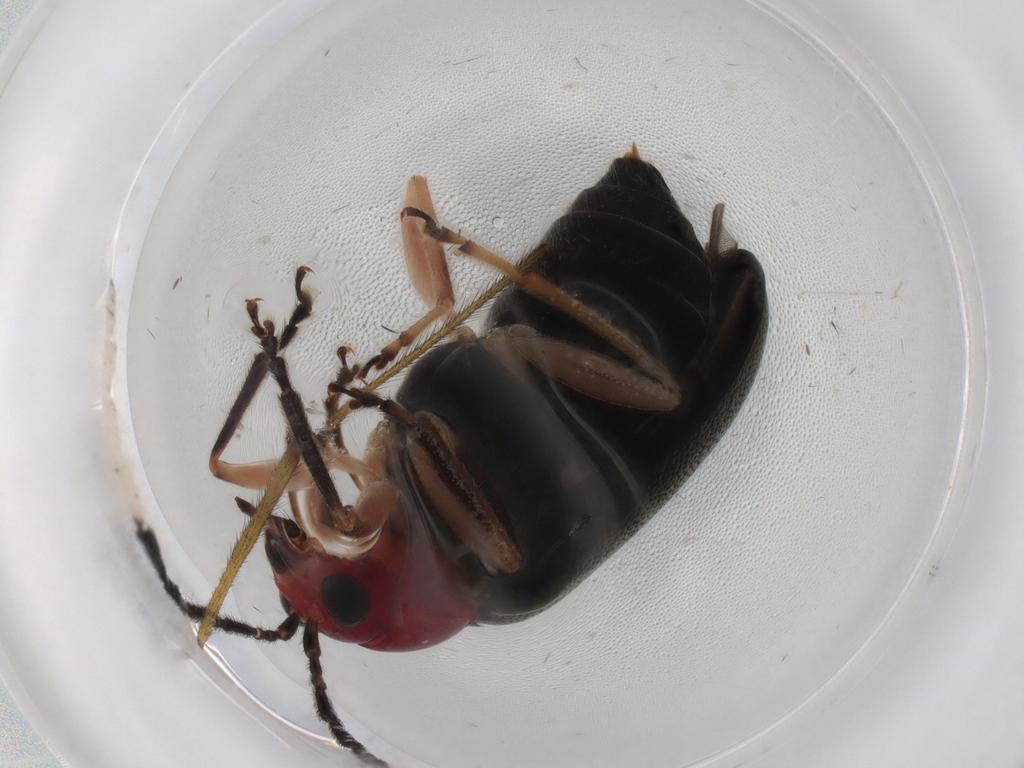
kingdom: Animalia
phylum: Arthropoda
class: Insecta
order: Coleoptera
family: Chrysomelidae
